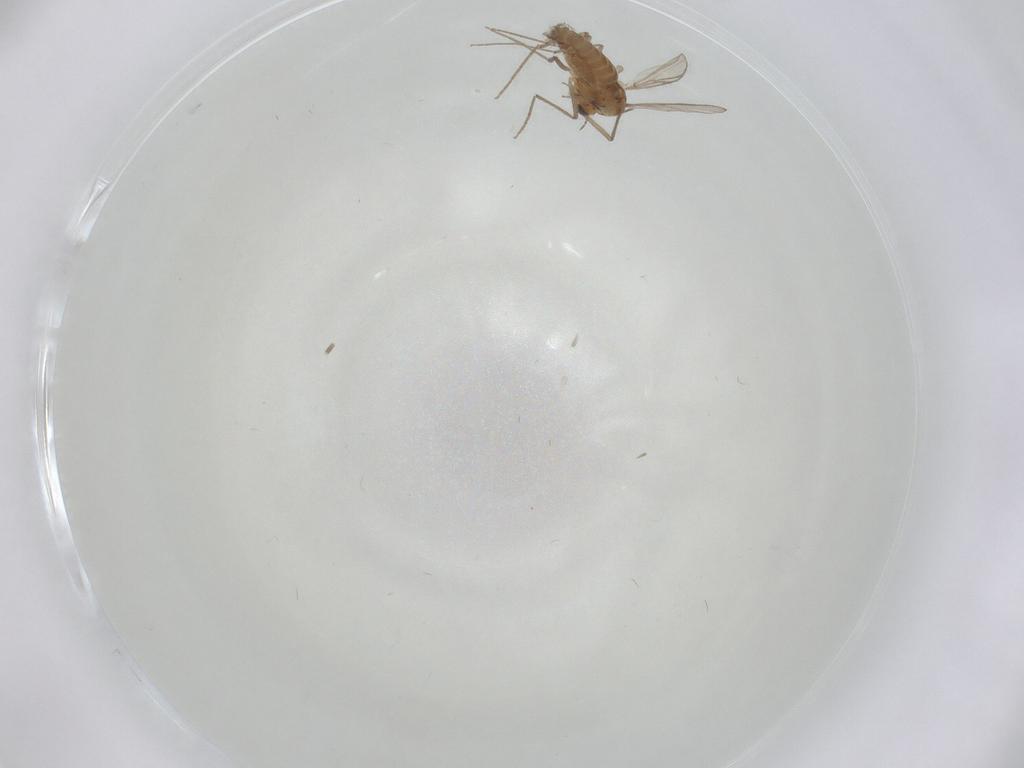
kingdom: Animalia
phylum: Arthropoda
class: Insecta
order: Diptera
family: Chironomidae
